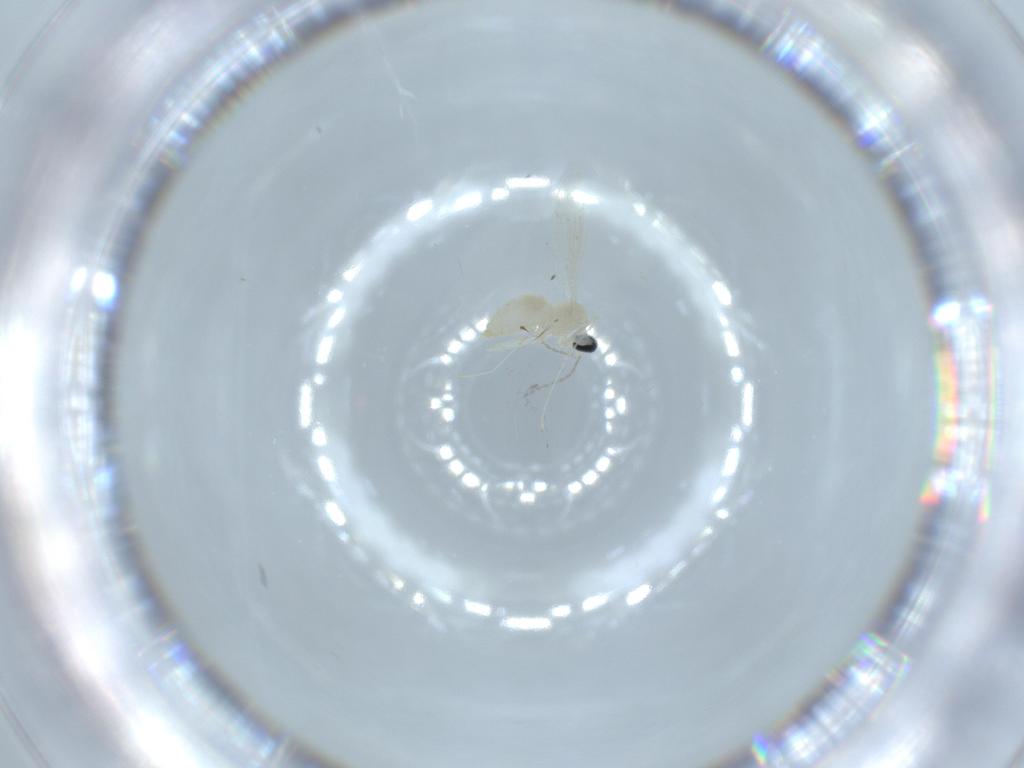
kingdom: Animalia
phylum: Arthropoda
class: Insecta
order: Diptera
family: Cecidomyiidae
